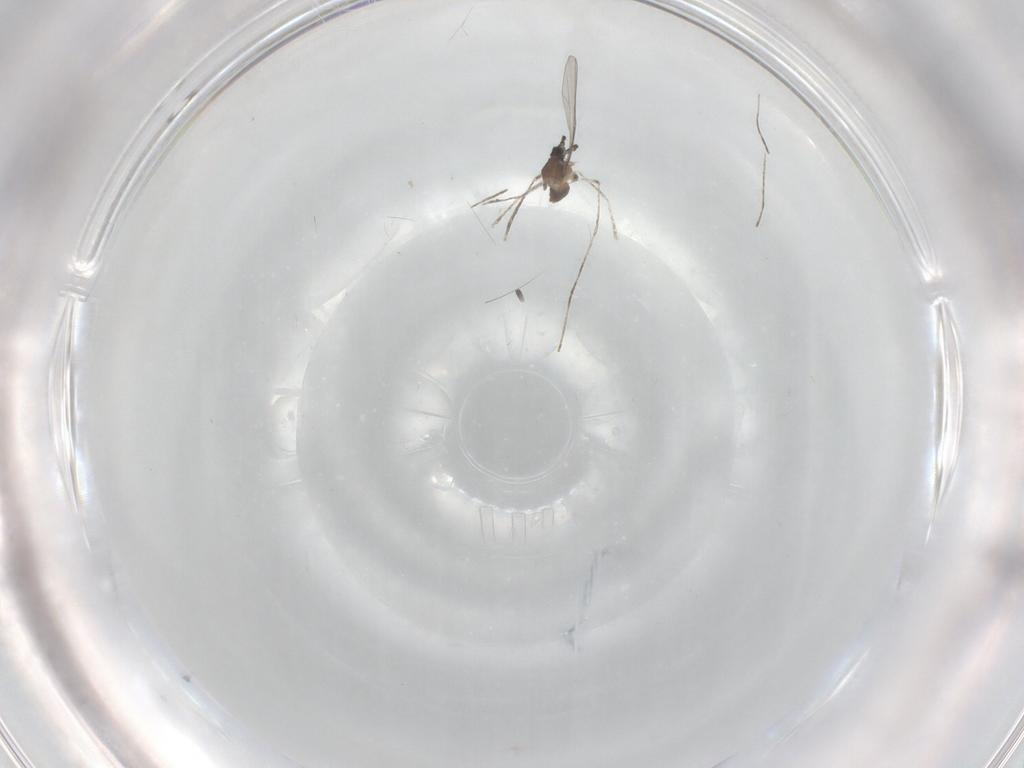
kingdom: Animalia
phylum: Arthropoda
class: Insecta
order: Diptera
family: Cecidomyiidae
